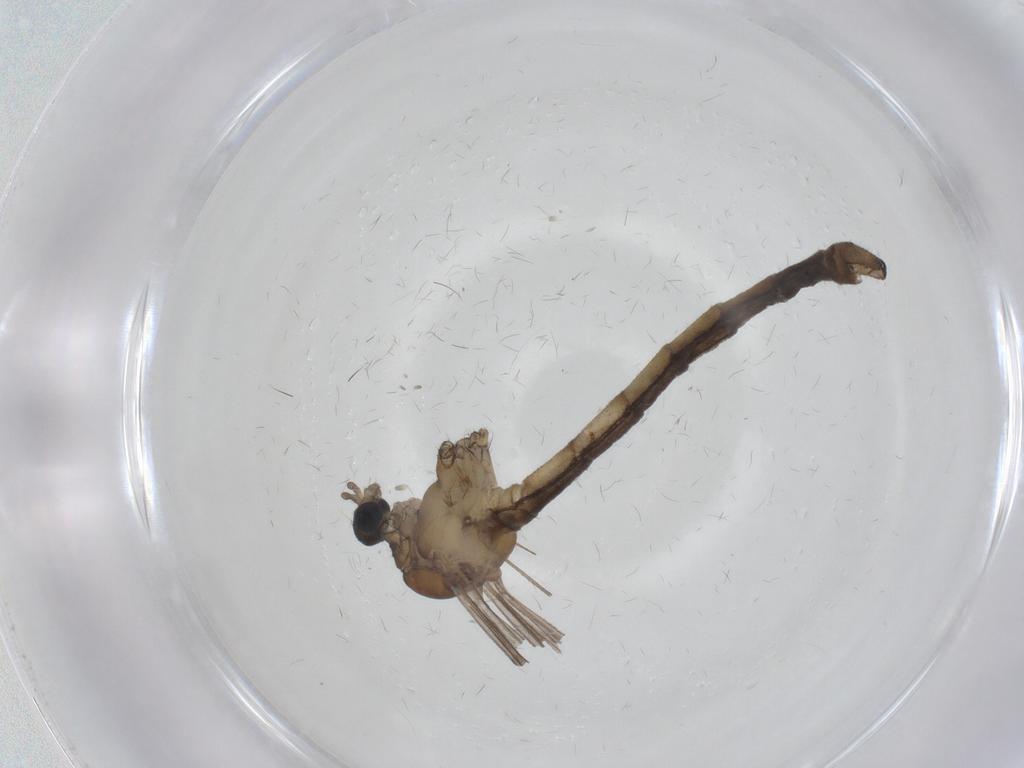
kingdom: Animalia
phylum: Arthropoda
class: Insecta
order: Diptera
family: Limoniidae
